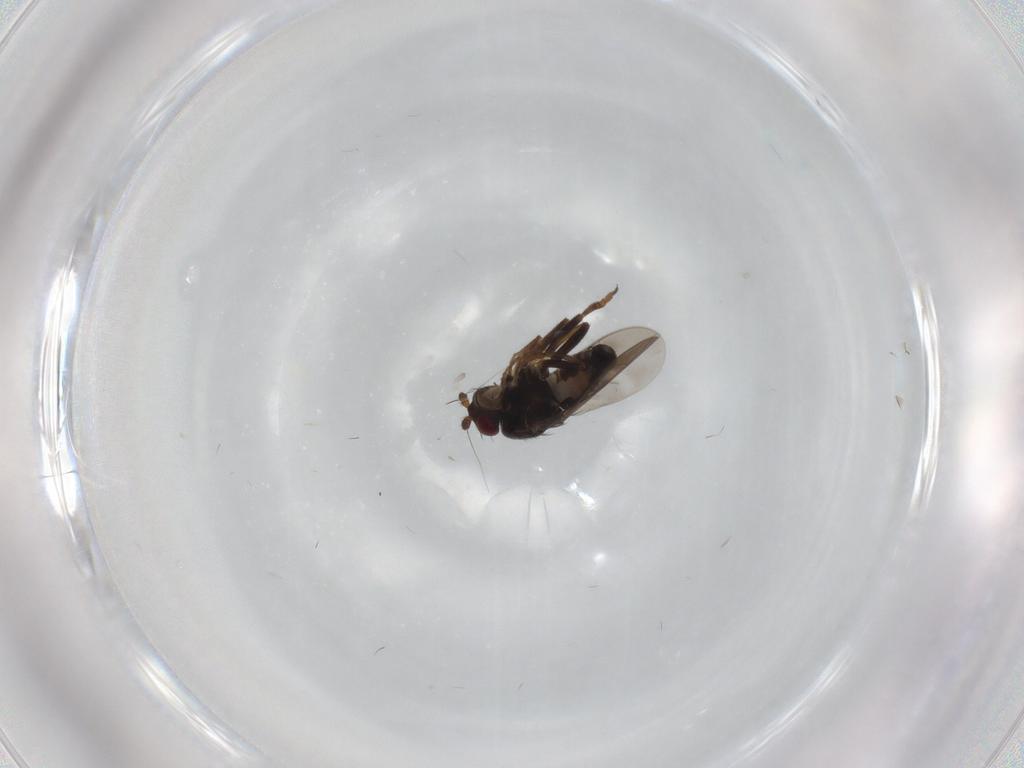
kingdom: Animalia
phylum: Arthropoda
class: Insecta
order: Diptera
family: Sphaeroceridae
